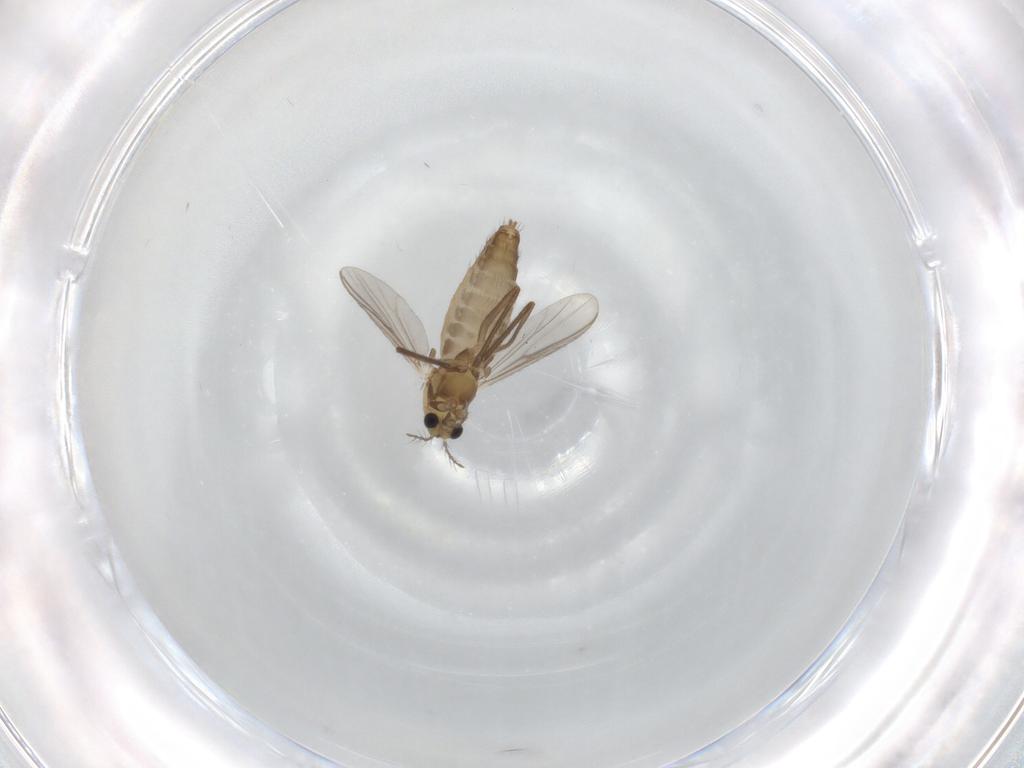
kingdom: Animalia
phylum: Arthropoda
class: Insecta
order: Diptera
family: Chironomidae
